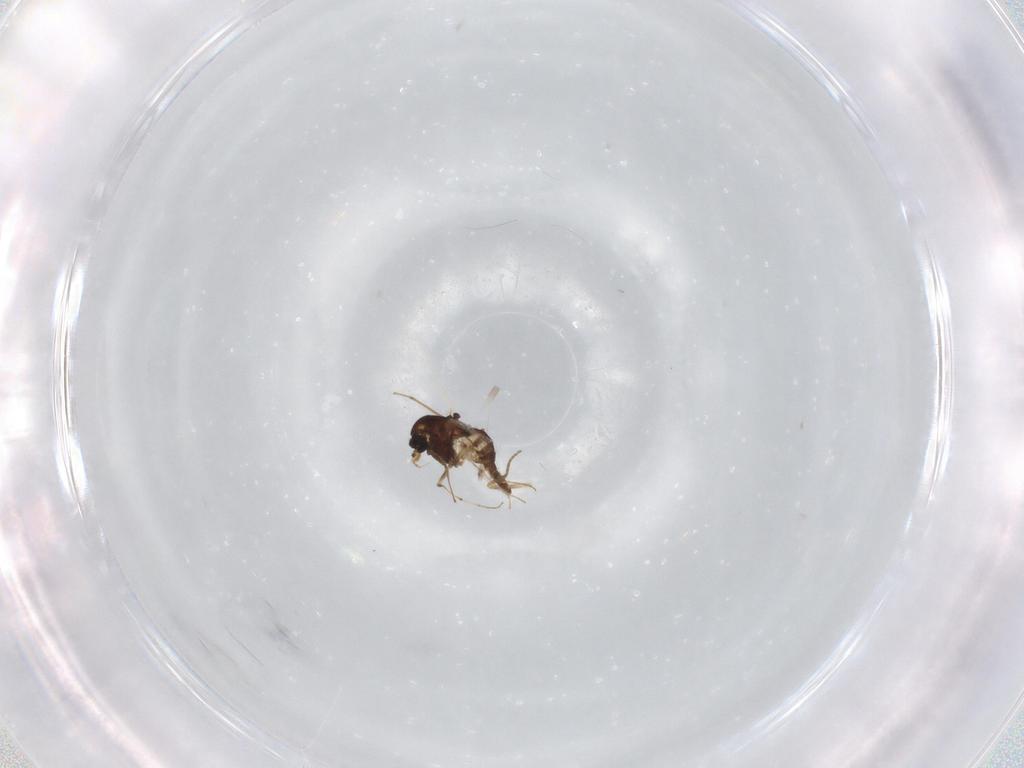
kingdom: Animalia
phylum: Arthropoda
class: Insecta
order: Diptera
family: Chironomidae
